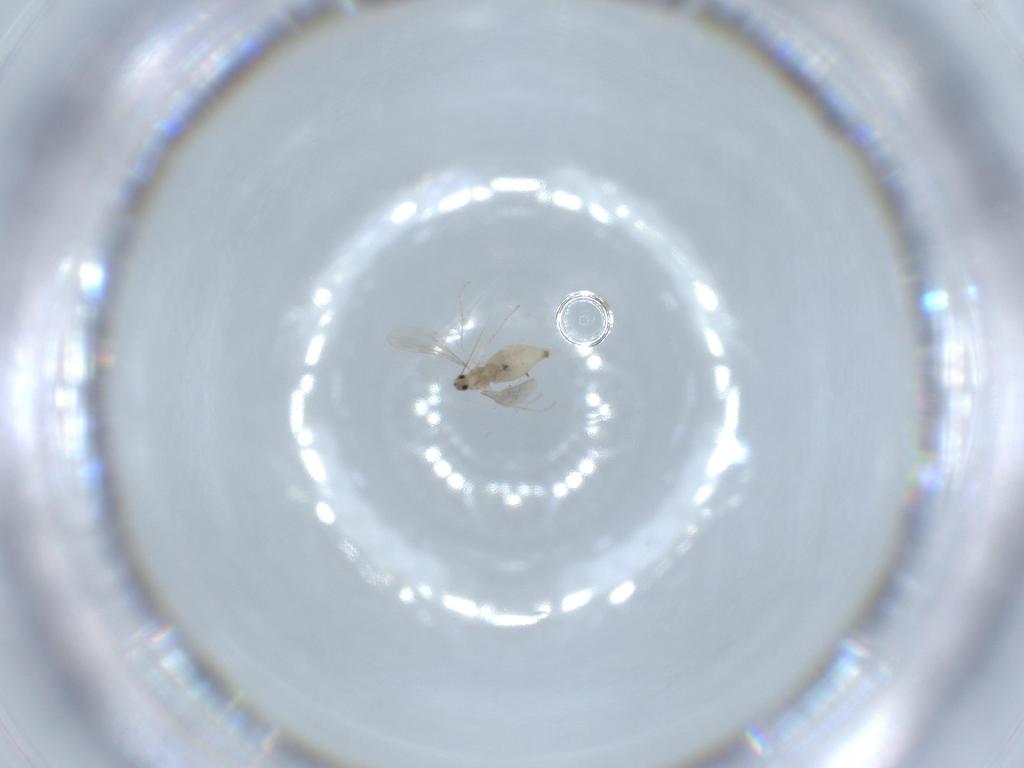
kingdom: Animalia
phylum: Arthropoda
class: Insecta
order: Diptera
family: Cecidomyiidae
